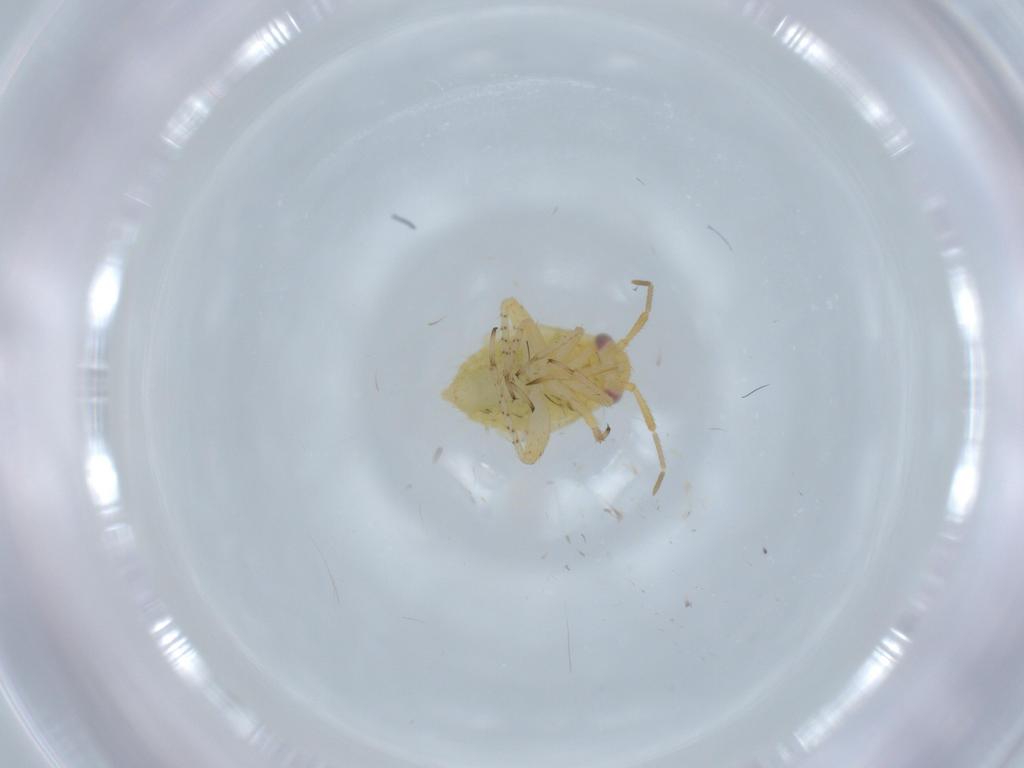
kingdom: Animalia
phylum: Arthropoda
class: Insecta
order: Hemiptera
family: Miridae
